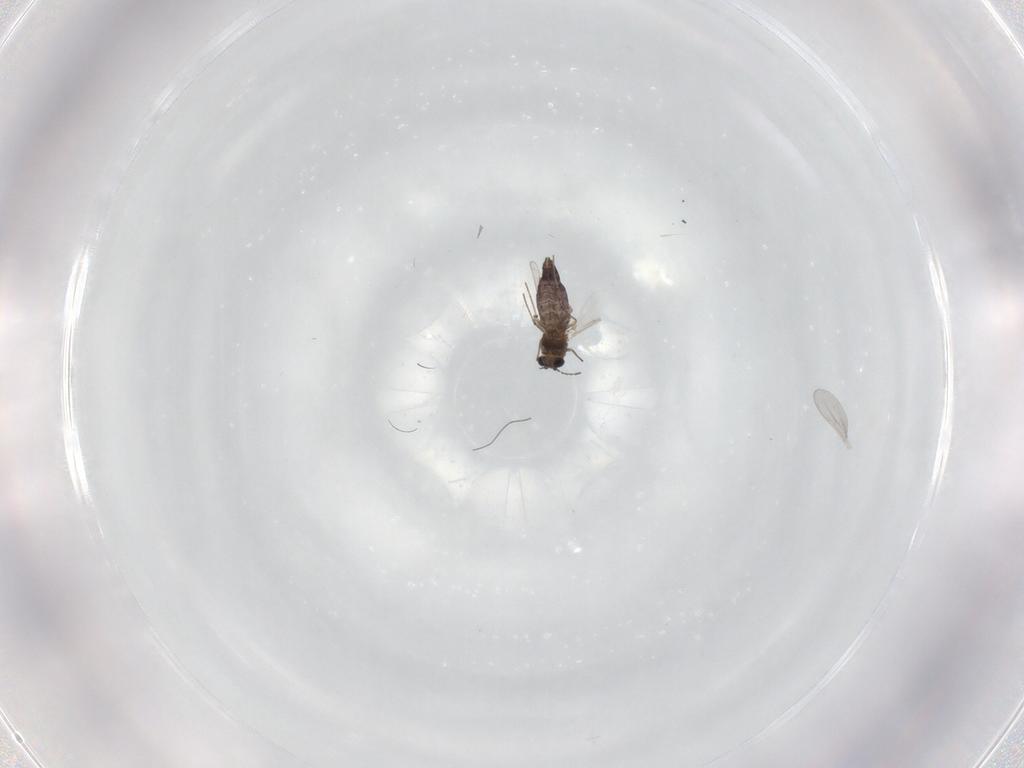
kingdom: Animalia
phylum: Arthropoda
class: Insecta
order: Diptera
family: Chironomidae
